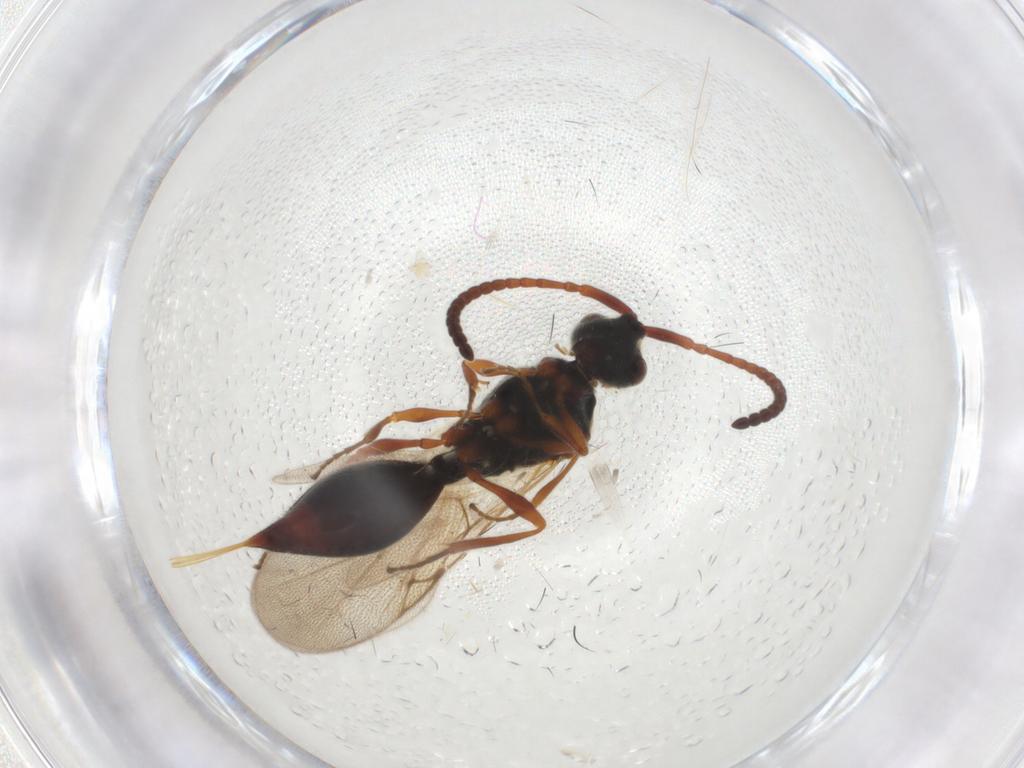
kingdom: Animalia
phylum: Arthropoda
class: Insecta
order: Hymenoptera
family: Diapriidae
